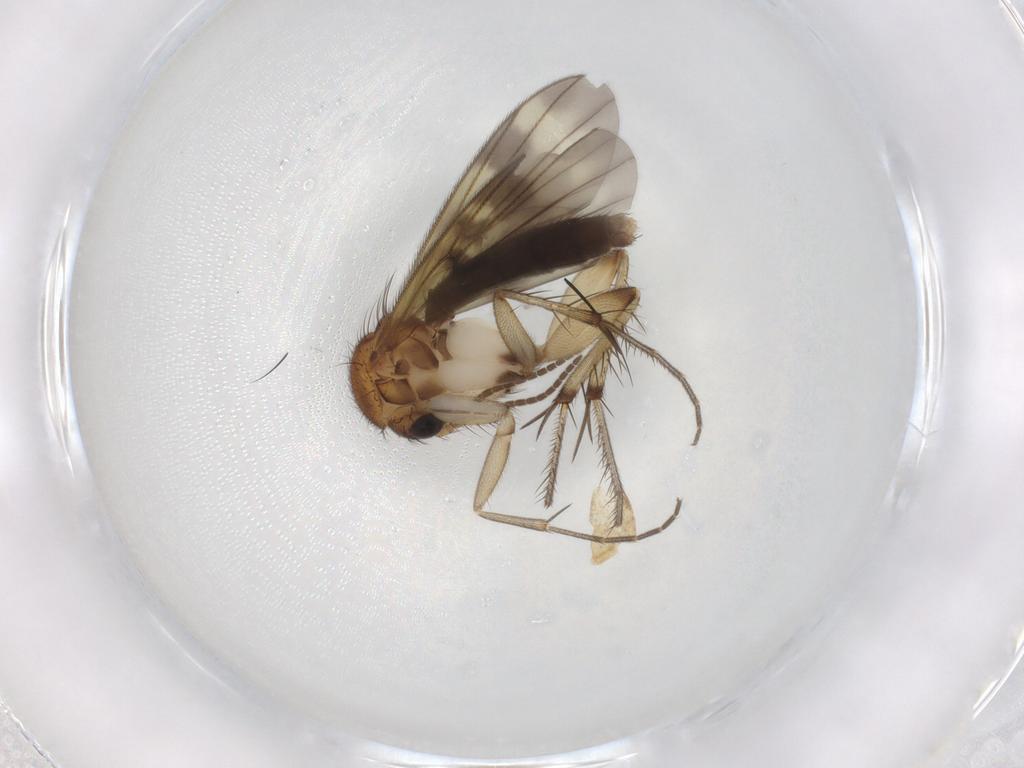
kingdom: Animalia
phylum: Arthropoda
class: Insecta
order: Diptera
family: Mycetophilidae
